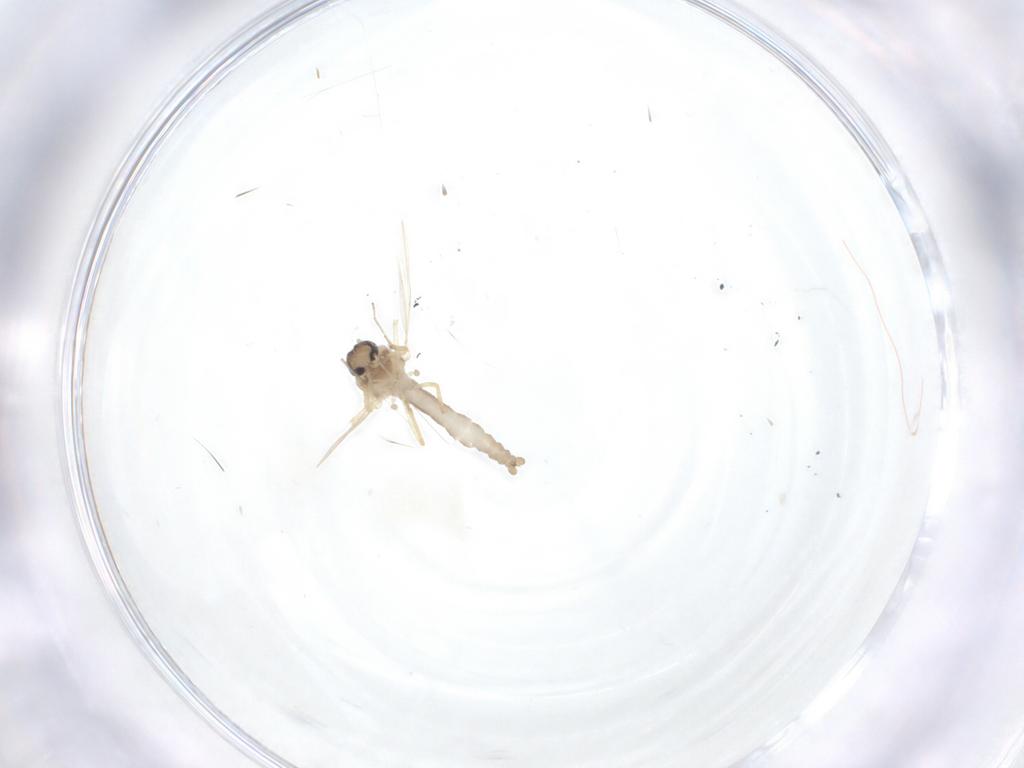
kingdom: Animalia
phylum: Arthropoda
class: Insecta
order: Diptera
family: Ceratopogonidae
